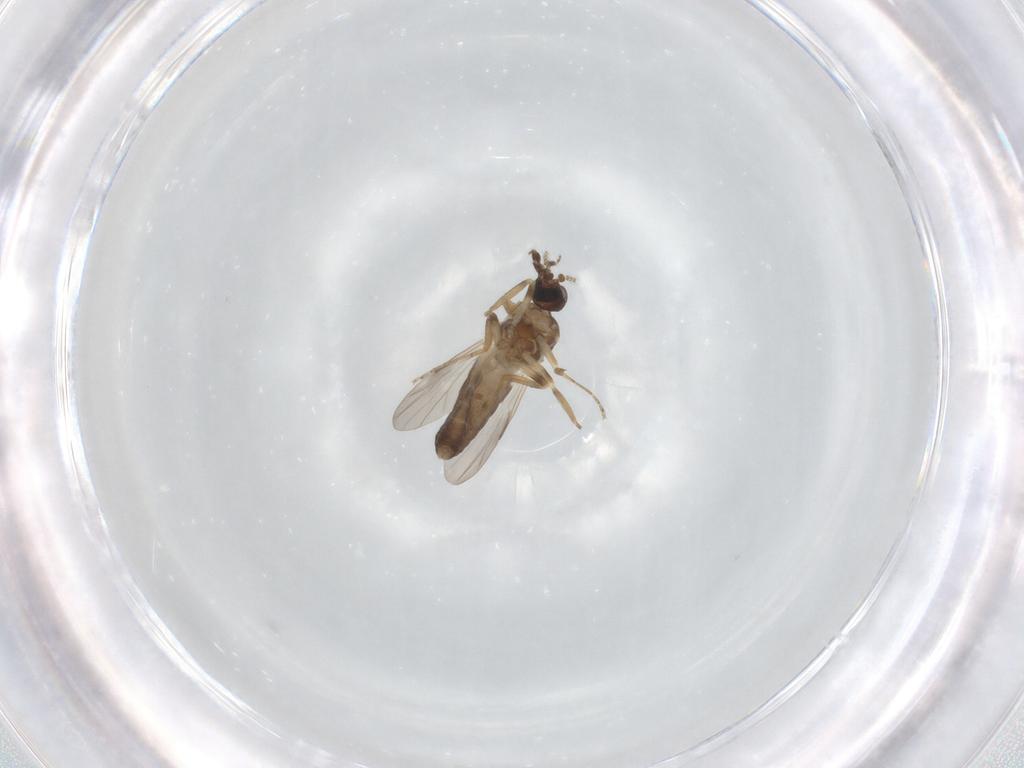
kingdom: Animalia
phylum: Arthropoda
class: Insecta
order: Diptera
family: Ceratopogonidae
